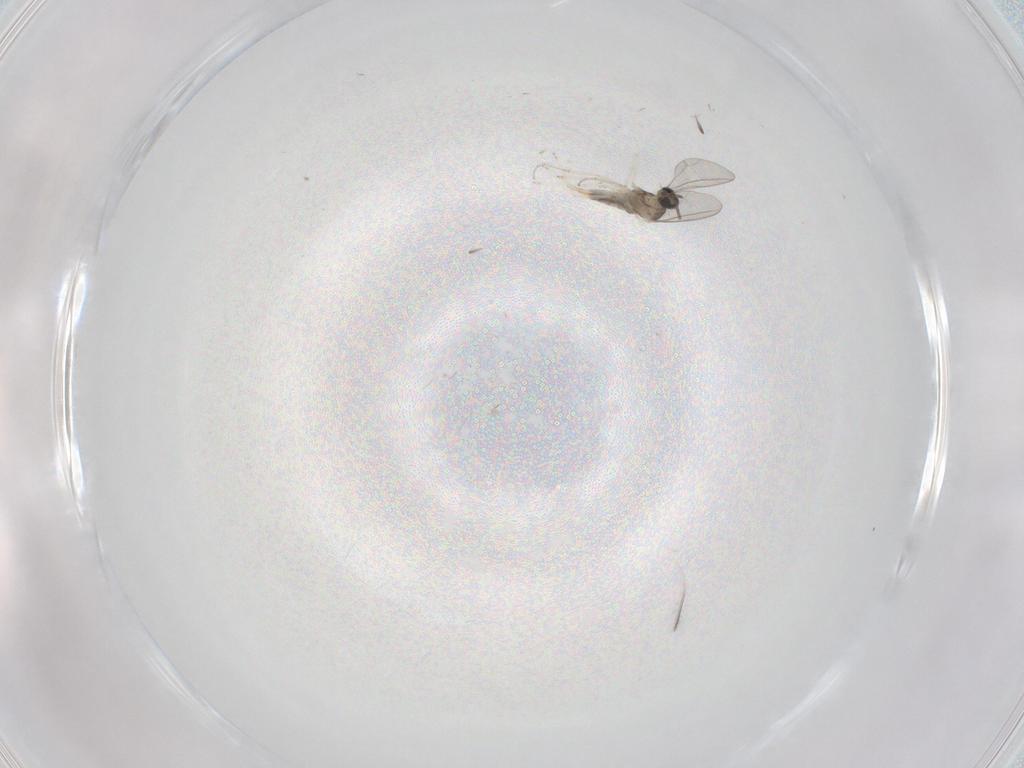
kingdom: Animalia
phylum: Arthropoda
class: Insecta
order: Diptera
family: Cecidomyiidae
